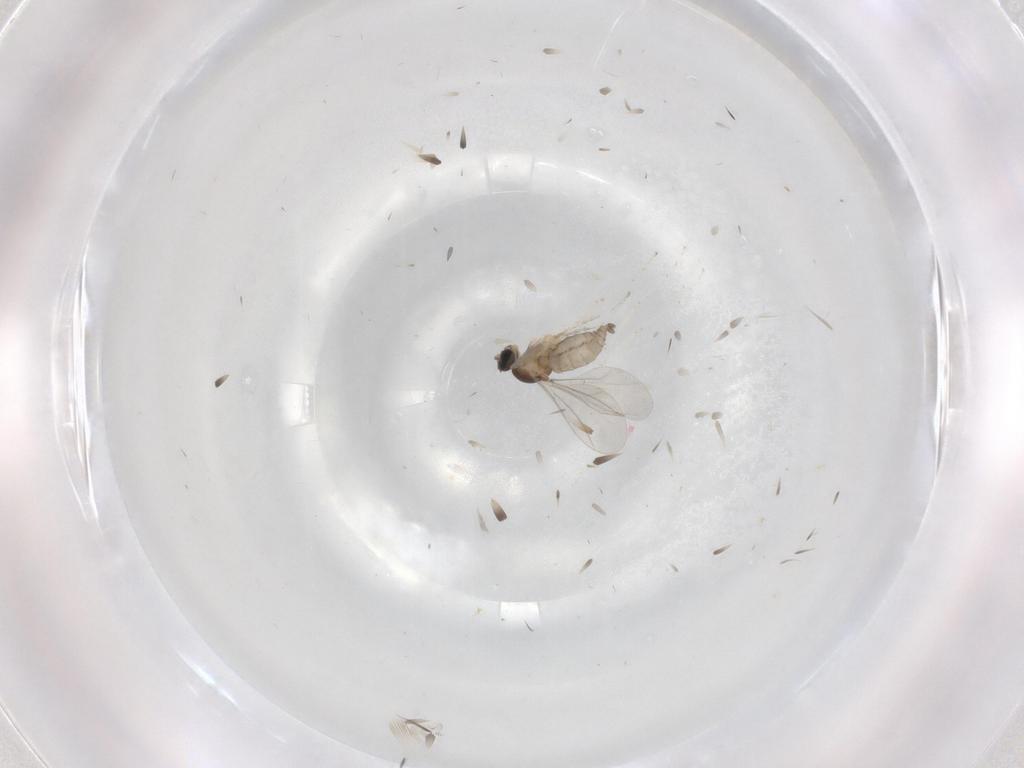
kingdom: Animalia
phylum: Arthropoda
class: Insecta
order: Diptera
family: Cecidomyiidae
